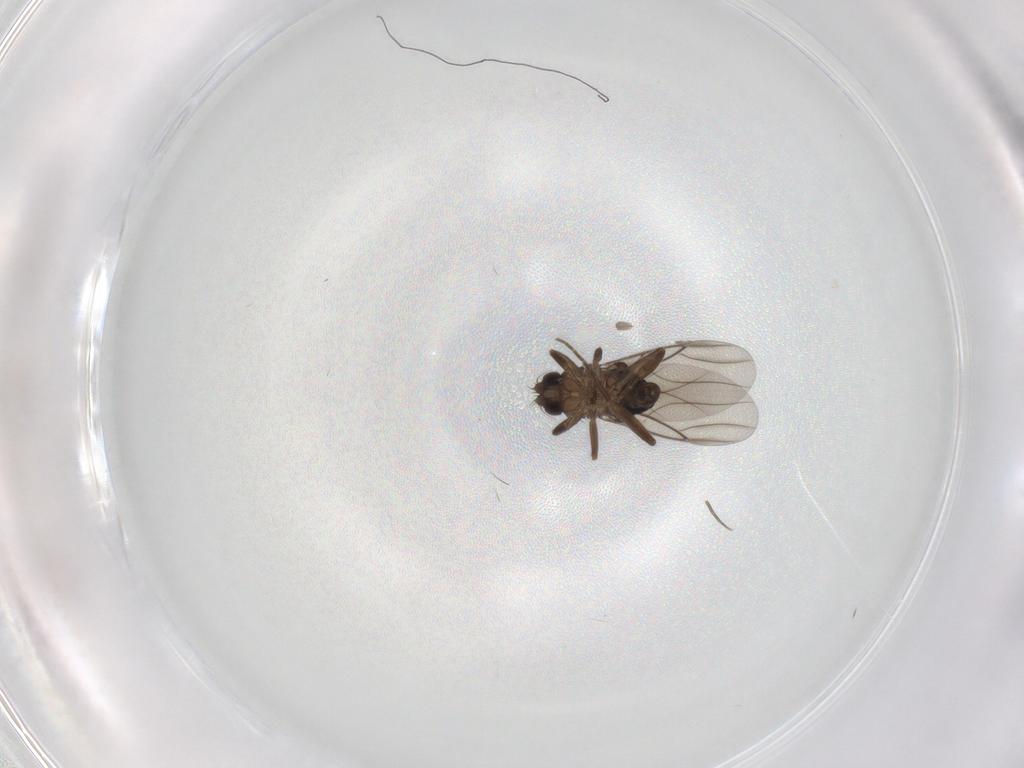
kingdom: Animalia
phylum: Arthropoda
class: Insecta
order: Diptera
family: Phoridae
